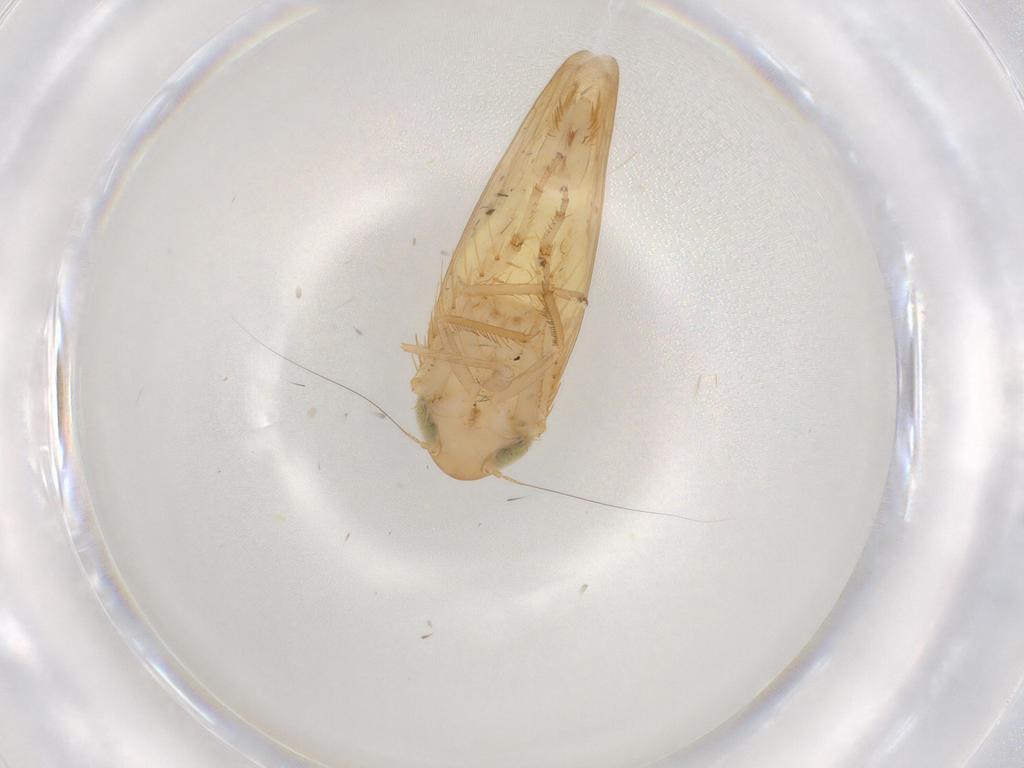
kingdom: Animalia
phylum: Arthropoda
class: Insecta
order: Hemiptera
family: Cicadellidae
